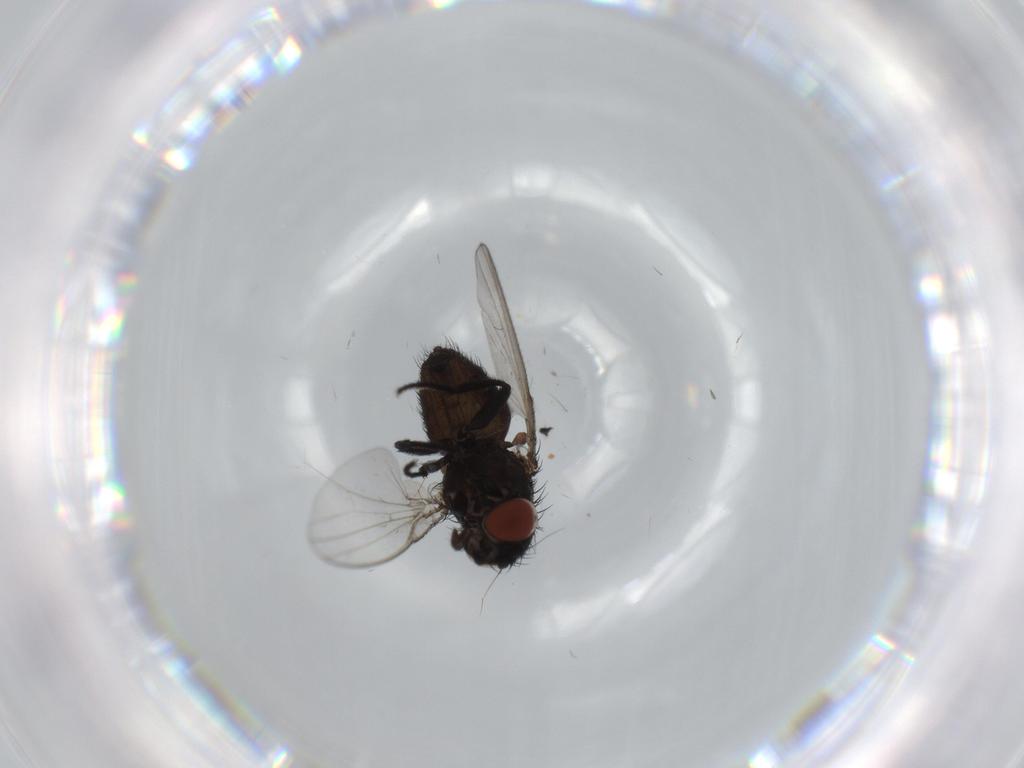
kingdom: Animalia
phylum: Arthropoda
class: Insecta
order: Diptera
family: Milichiidae
